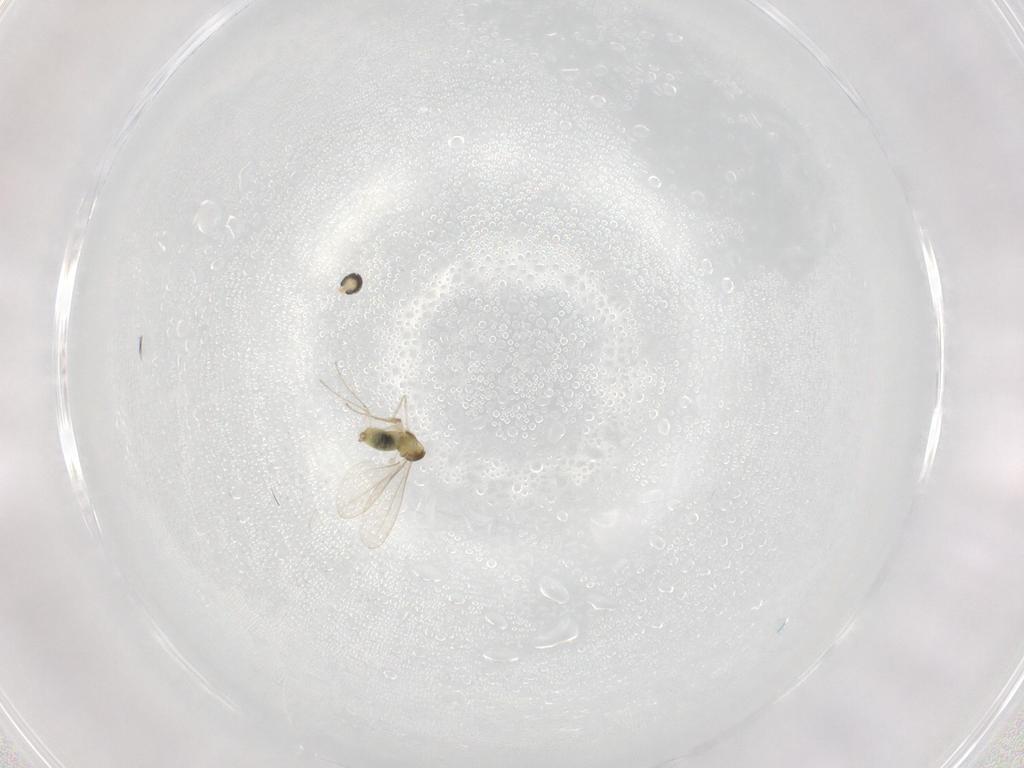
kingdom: Animalia
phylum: Arthropoda
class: Insecta
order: Diptera
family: Cecidomyiidae
